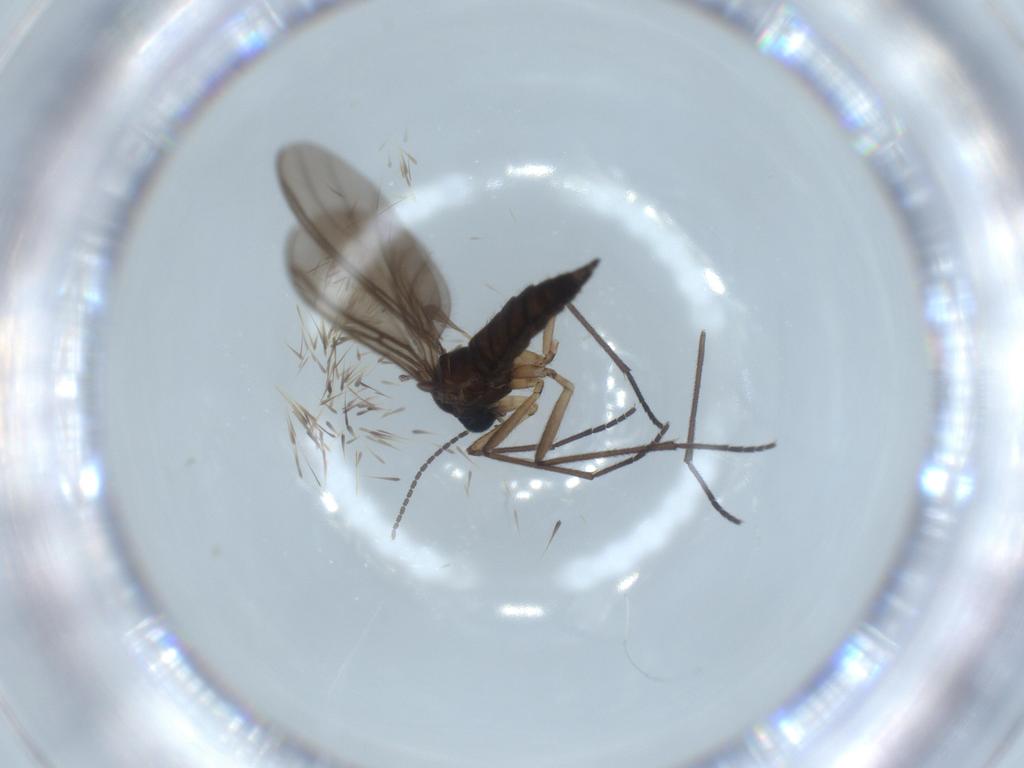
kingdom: Animalia
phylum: Arthropoda
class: Insecta
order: Diptera
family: Sciaridae
